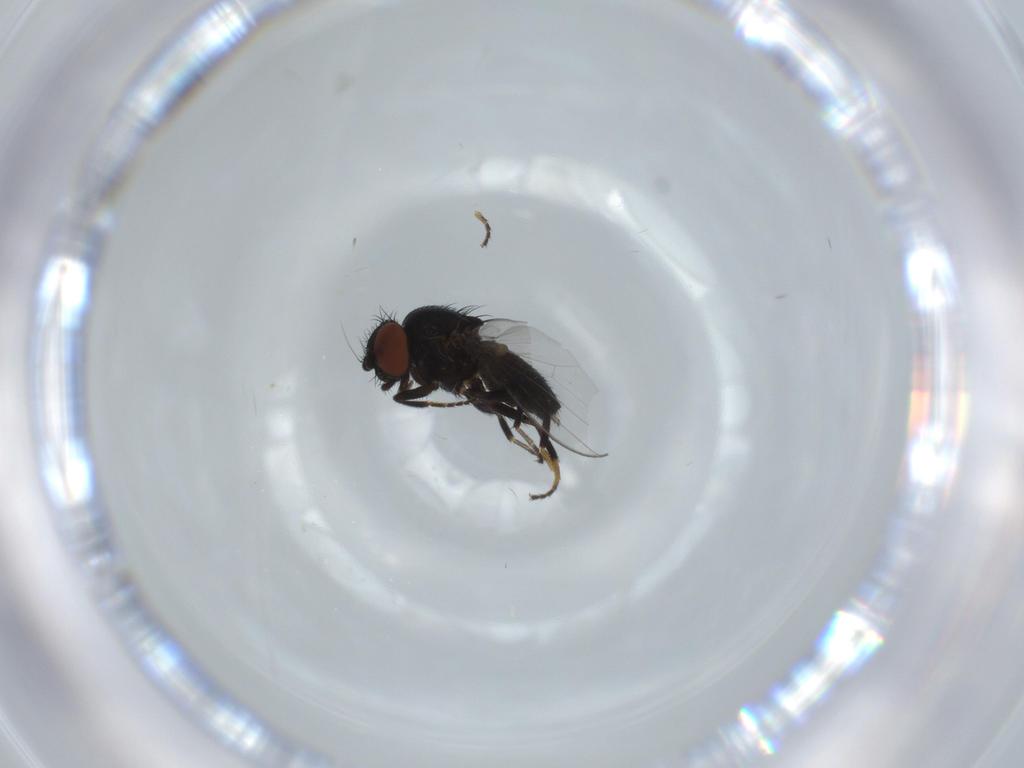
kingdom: Animalia
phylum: Arthropoda
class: Insecta
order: Diptera
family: Milichiidae
